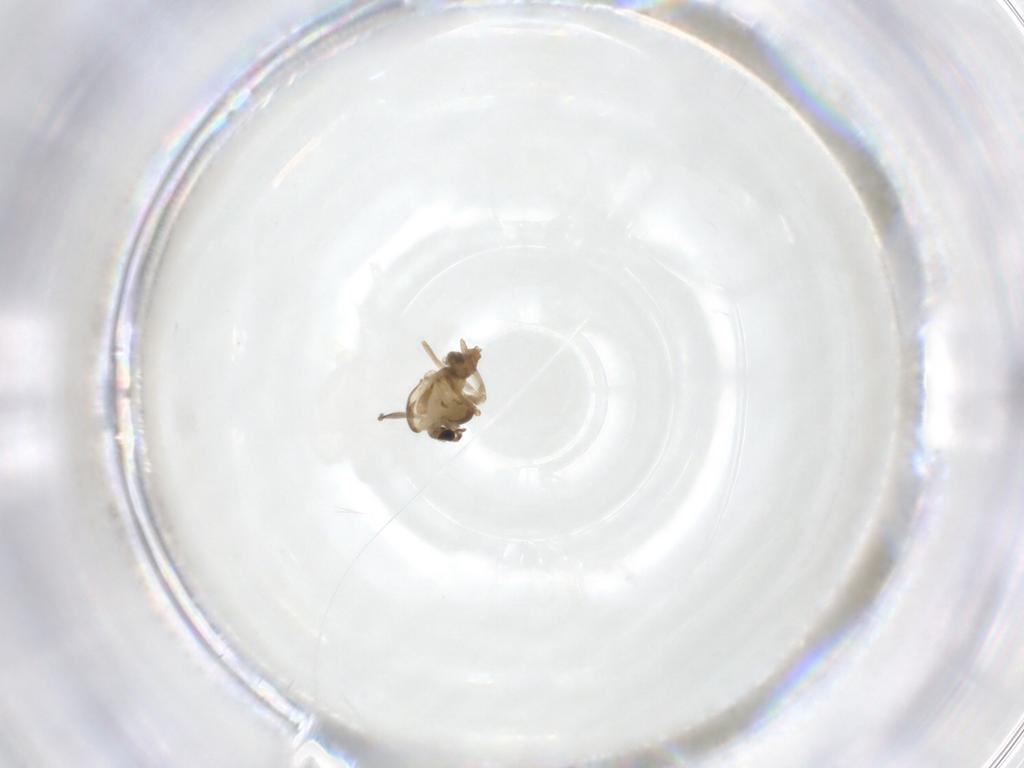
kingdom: Animalia
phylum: Arthropoda
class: Insecta
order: Diptera
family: Chironomidae
